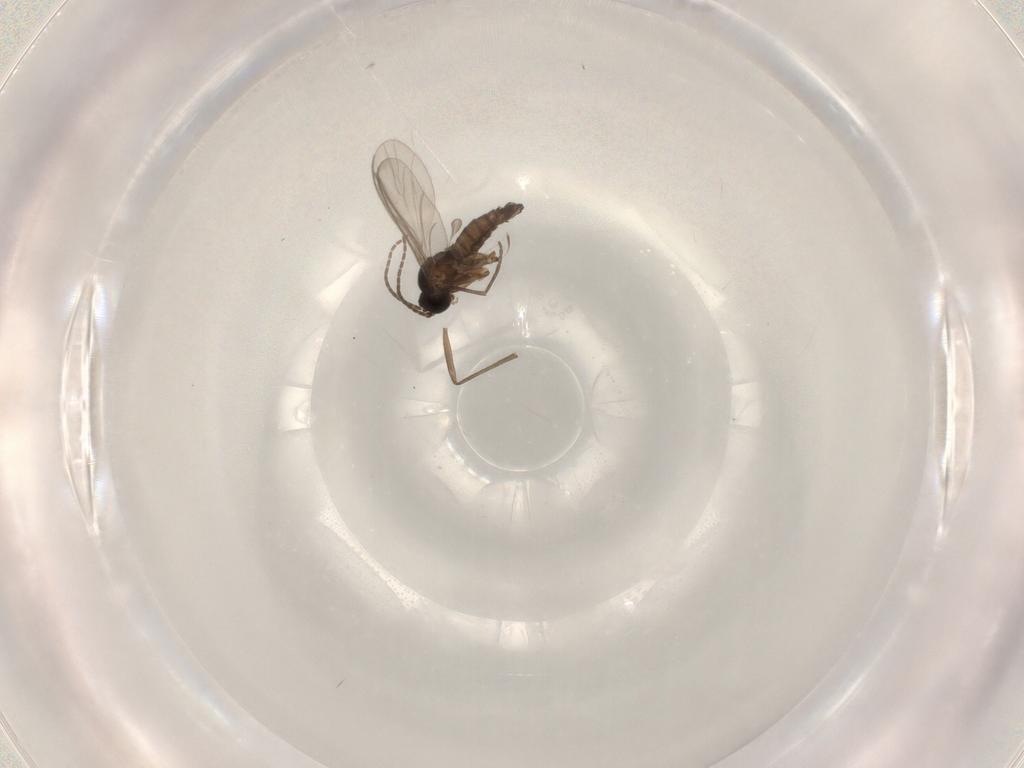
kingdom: Animalia
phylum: Arthropoda
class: Insecta
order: Diptera
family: Sciaridae
